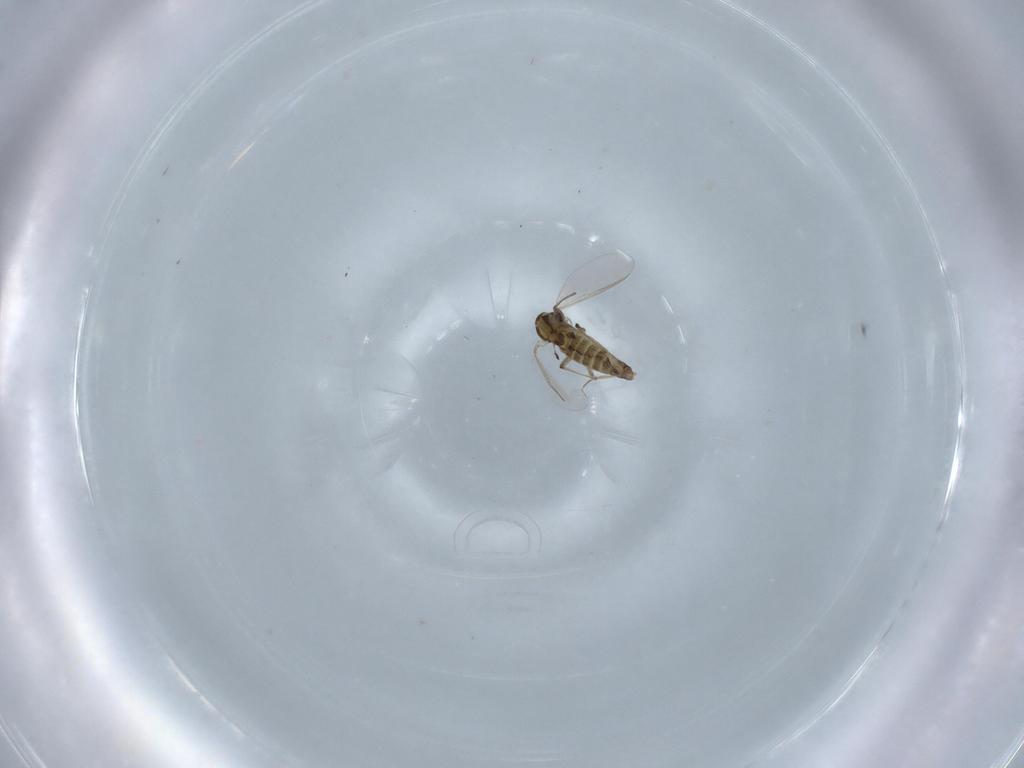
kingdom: Animalia
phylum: Arthropoda
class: Insecta
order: Diptera
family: Chironomidae
